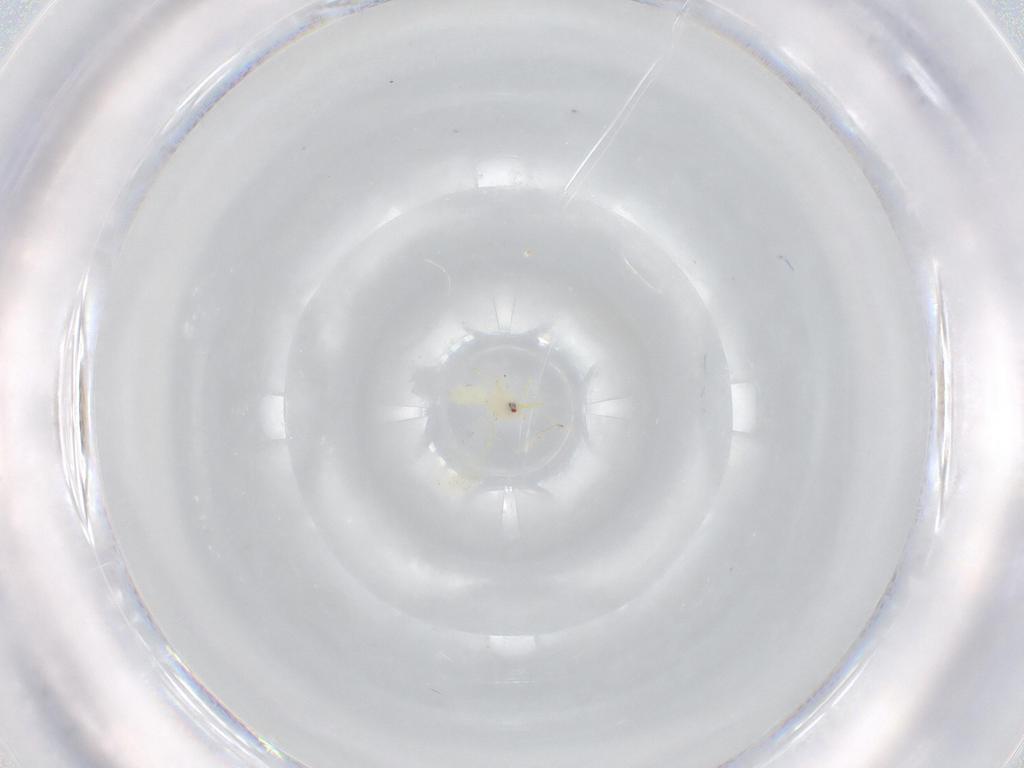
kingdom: Animalia
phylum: Arthropoda
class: Insecta
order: Hemiptera
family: Aleyrodidae
